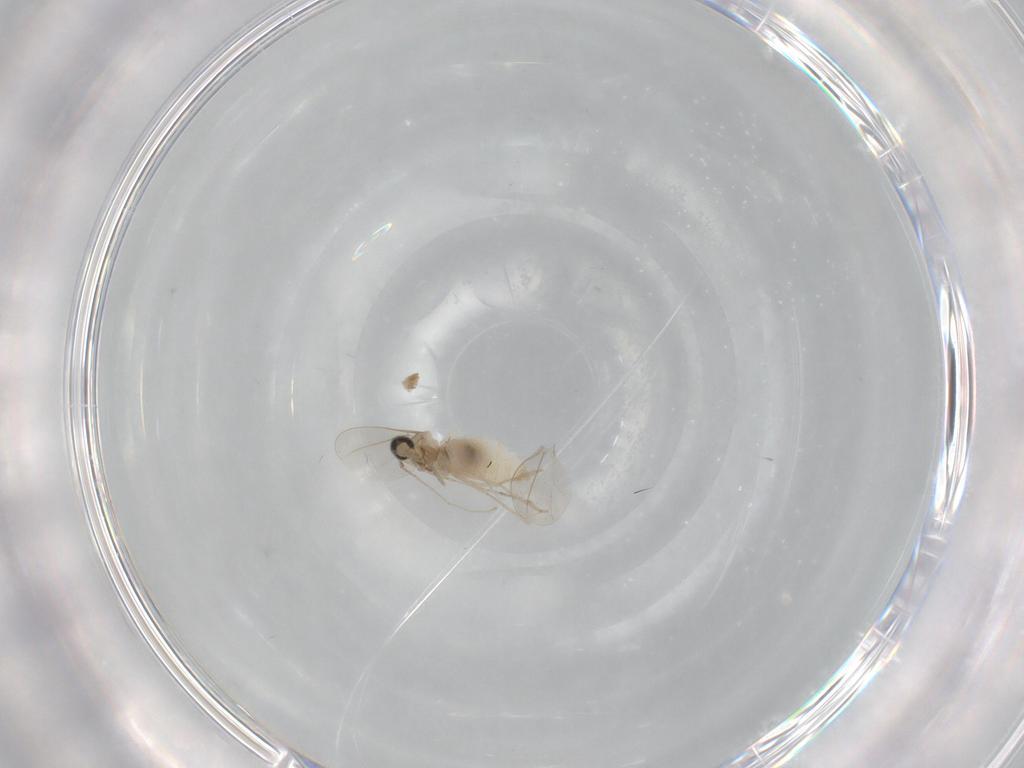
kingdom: Animalia
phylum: Arthropoda
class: Insecta
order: Diptera
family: Cecidomyiidae
